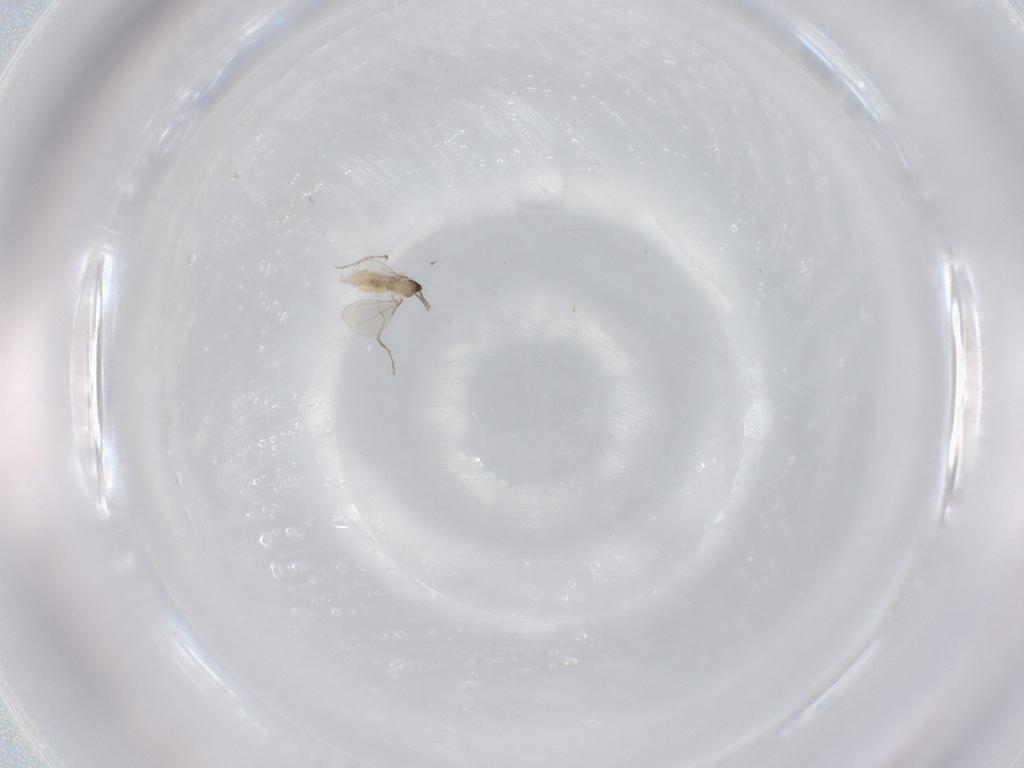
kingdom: Animalia
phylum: Arthropoda
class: Insecta
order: Diptera
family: Cecidomyiidae
